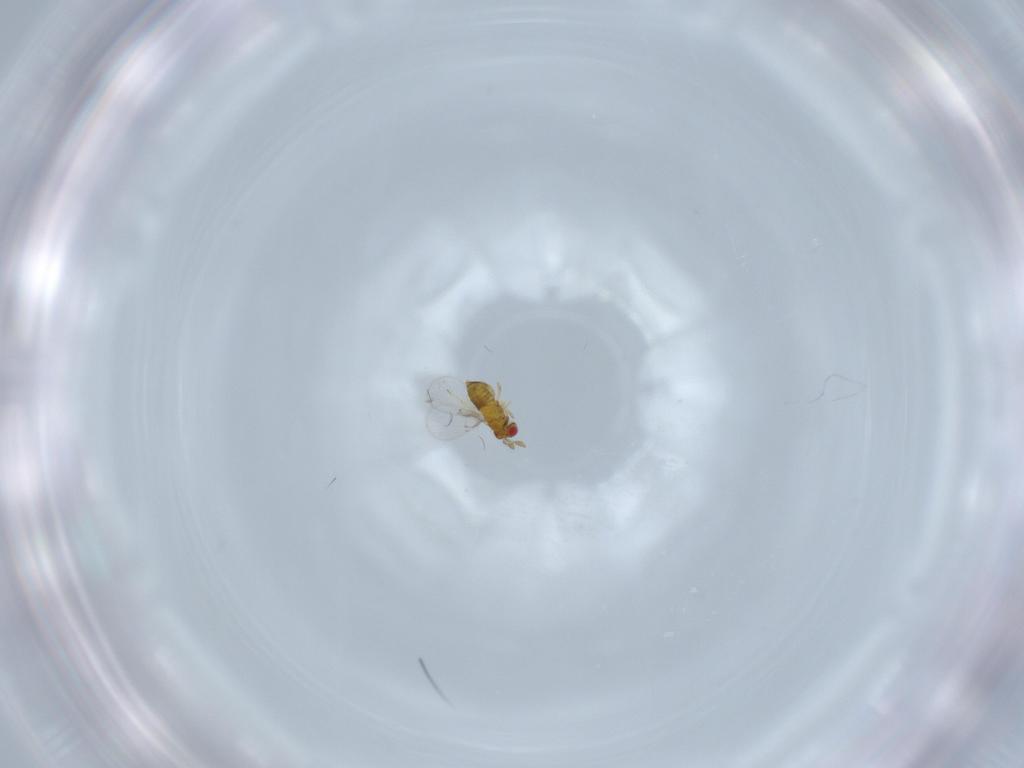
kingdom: Animalia
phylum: Arthropoda
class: Insecta
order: Hymenoptera
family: Trichogrammatidae
